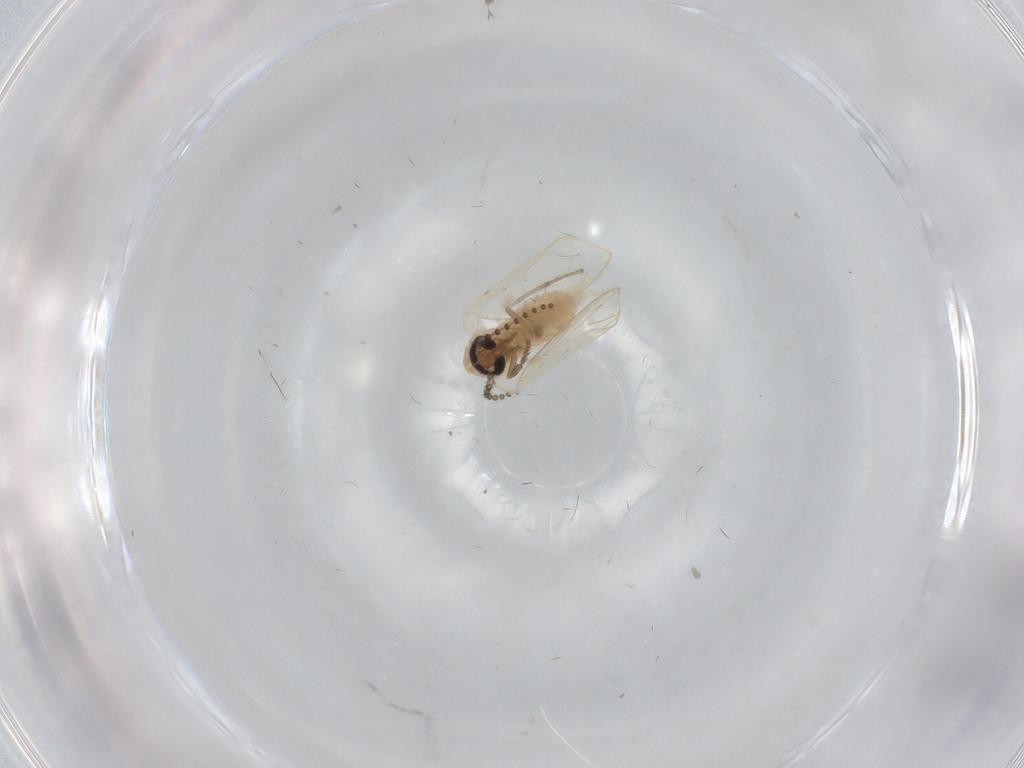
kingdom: Animalia
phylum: Arthropoda
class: Insecta
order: Diptera
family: Psychodidae
